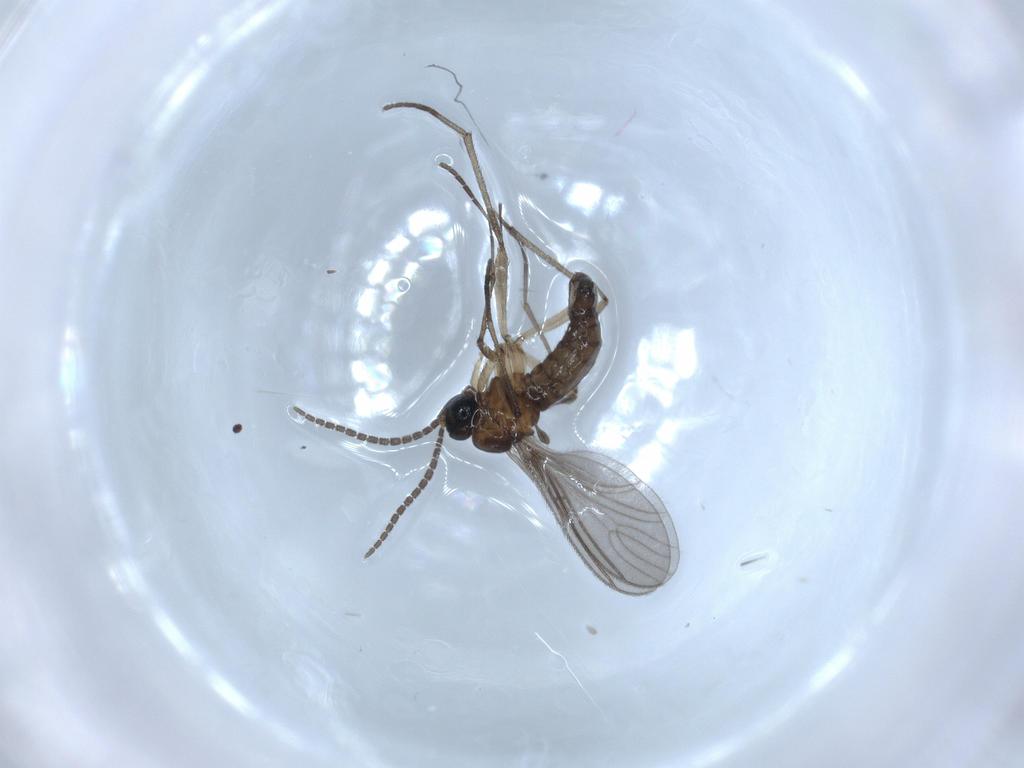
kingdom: Animalia
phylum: Arthropoda
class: Insecta
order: Diptera
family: Sciaridae
